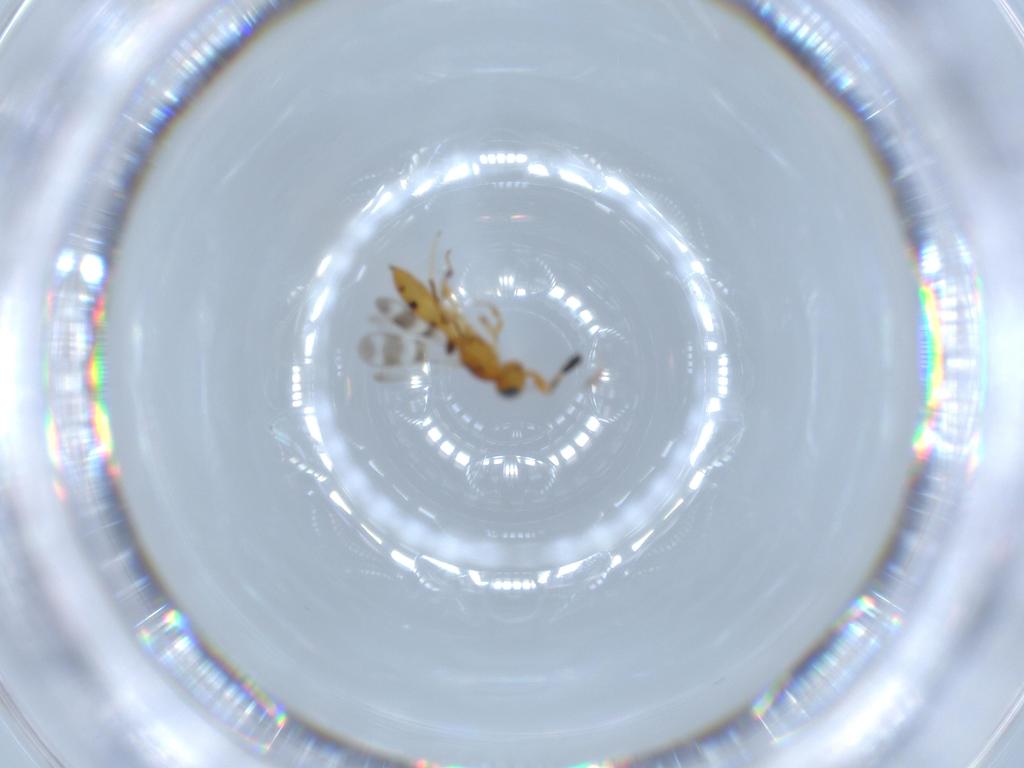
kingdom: Animalia
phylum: Arthropoda
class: Insecta
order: Hymenoptera
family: Scelionidae
